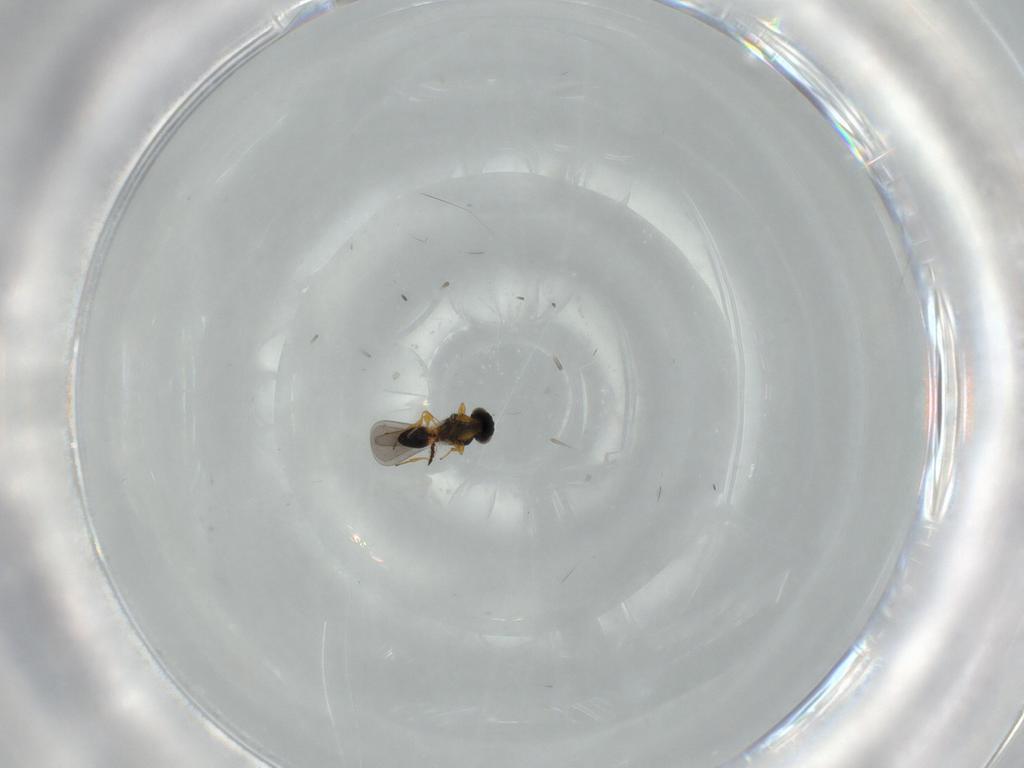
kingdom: Animalia
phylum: Arthropoda
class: Insecta
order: Hymenoptera
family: Platygastridae
